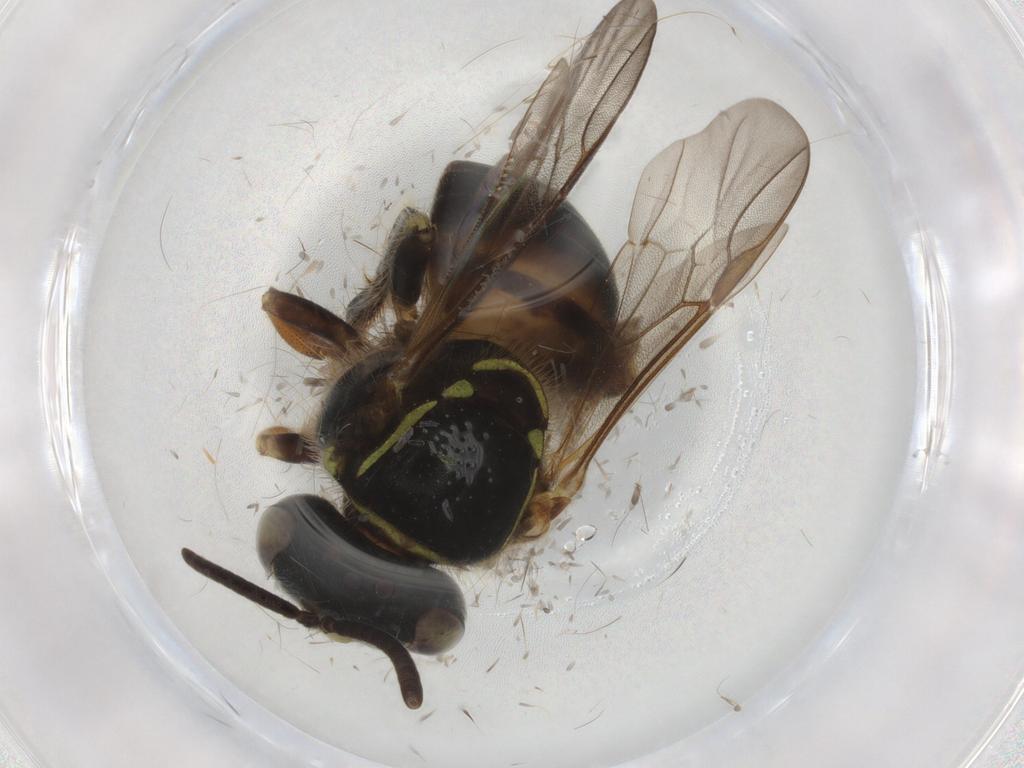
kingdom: Animalia
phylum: Arthropoda
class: Insecta
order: Hymenoptera
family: Apidae
